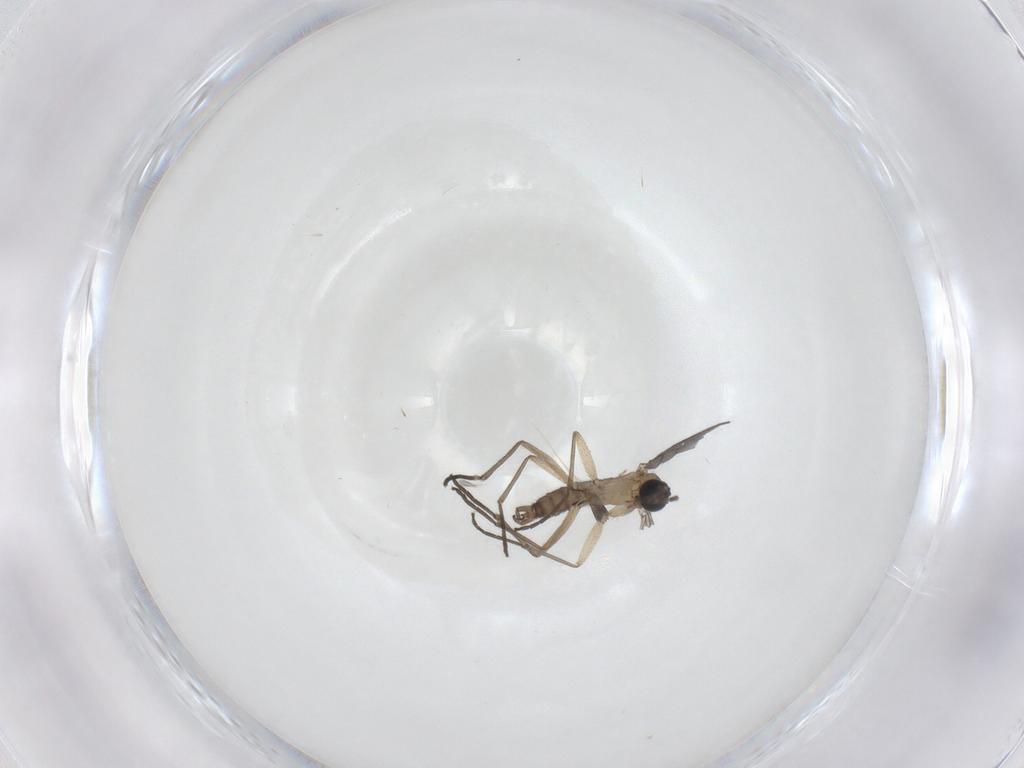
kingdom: Animalia
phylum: Arthropoda
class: Insecta
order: Diptera
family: Sciaridae
